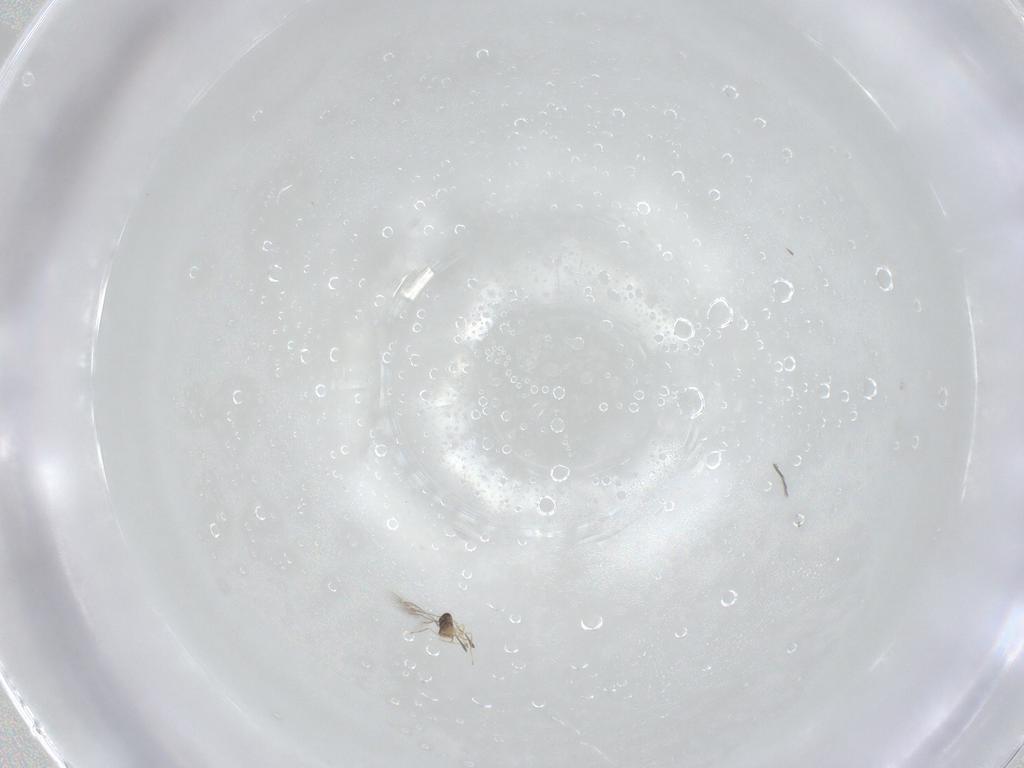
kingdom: Animalia
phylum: Arthropoda
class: Insecta
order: Hymenoptera
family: Mymaridae
